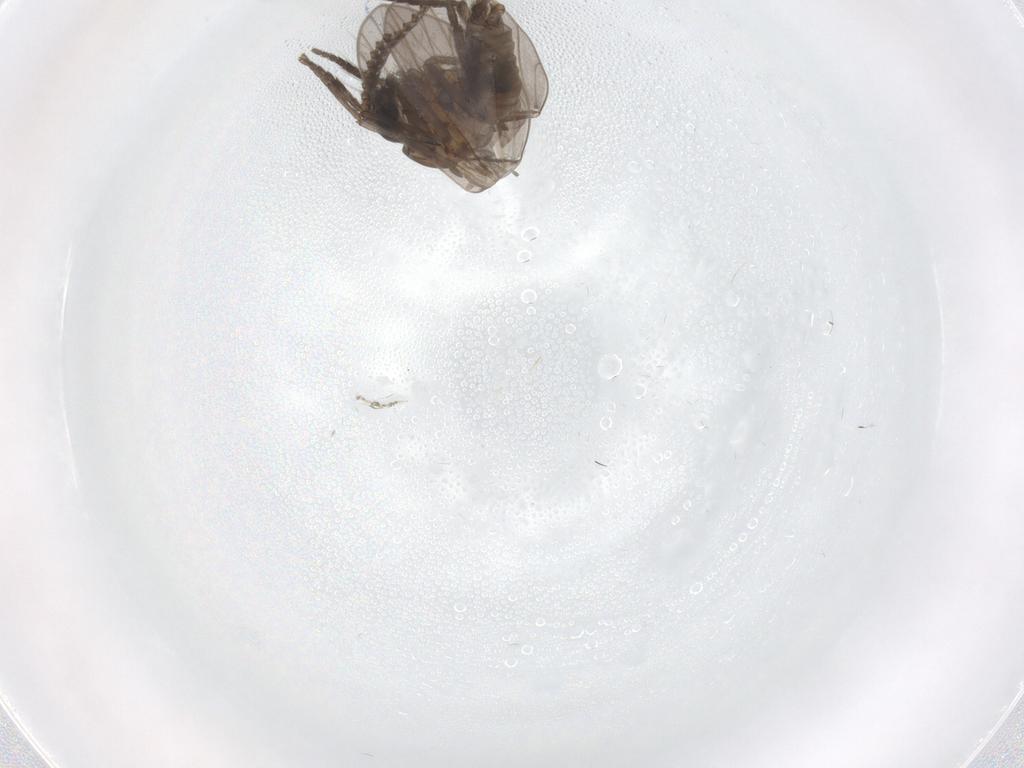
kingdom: Animalia
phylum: Arthropoda
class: Insecta
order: Diptera
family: Psychodidae
